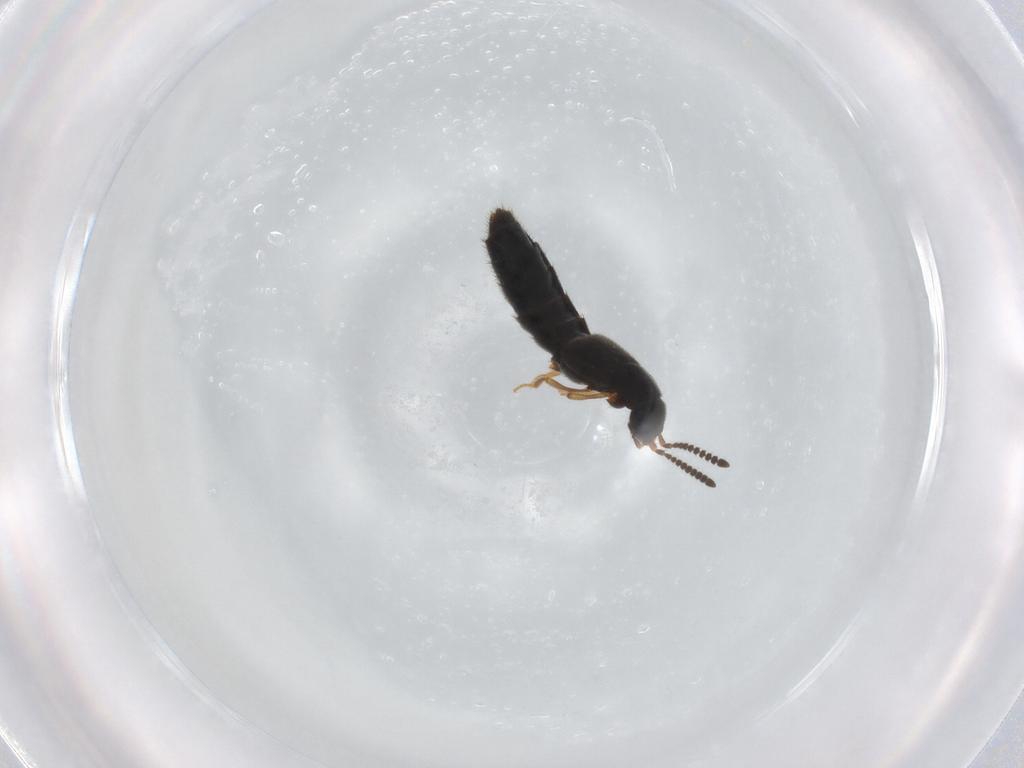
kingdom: Animalia
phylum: Arthropoda
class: Insecta
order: Coleoptera
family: Staphylinidae
